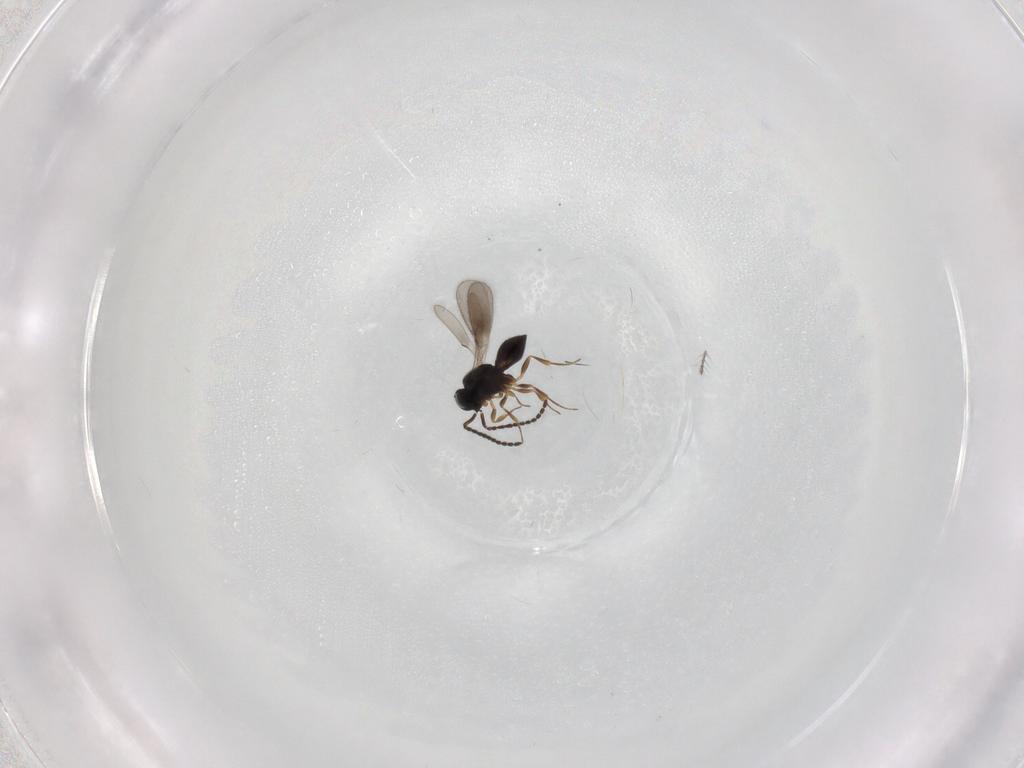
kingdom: Animalia
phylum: Arthropoda
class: Insecta
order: Hymenoptera
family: Scelionidae
